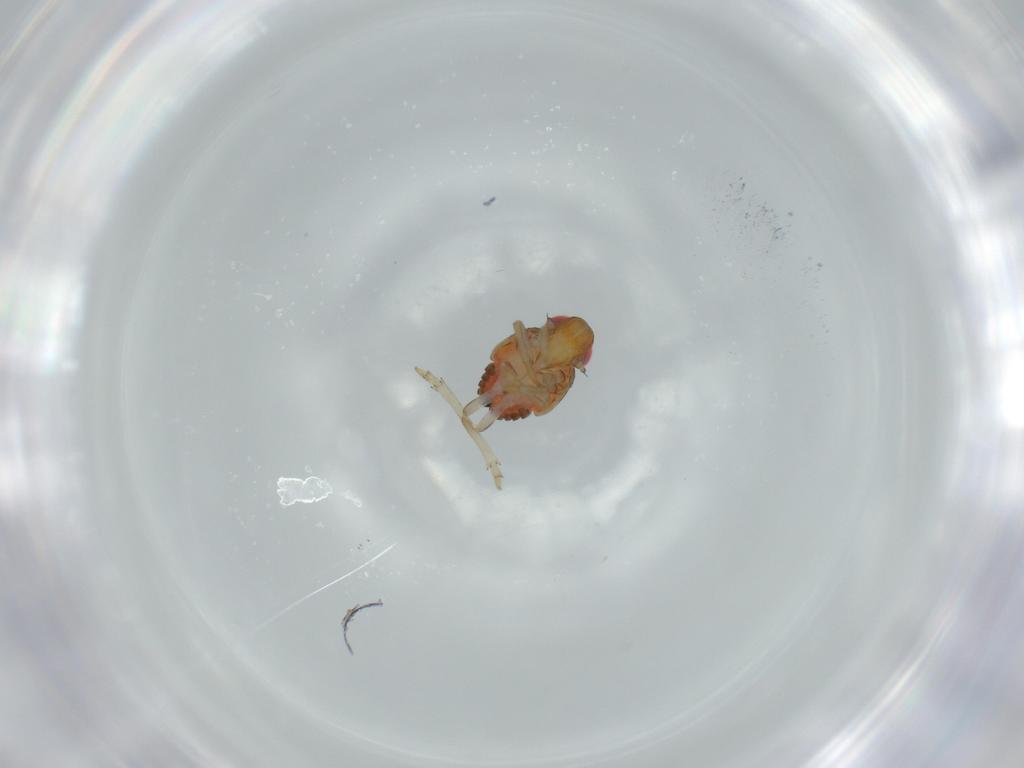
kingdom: Animalia
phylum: Arthropoda
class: Insecta
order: Hemiptera
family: Issidae
